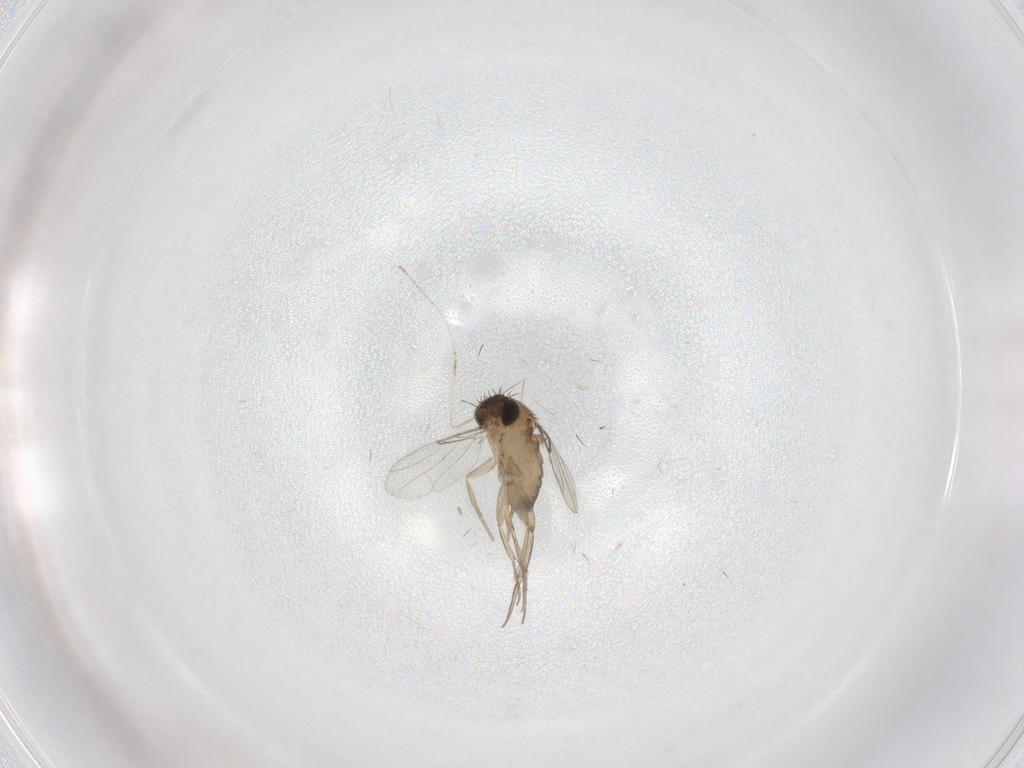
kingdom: Animalia
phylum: Arthropoda
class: Insecta
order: Diptera
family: Cecidomyiidae
